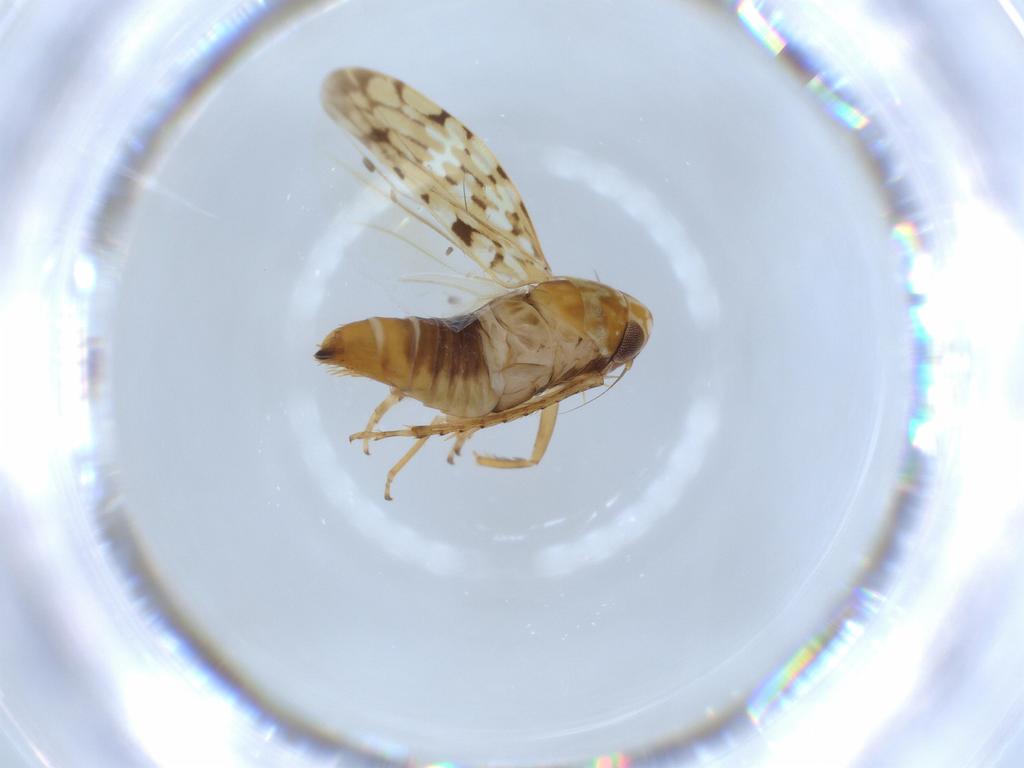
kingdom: Animalia
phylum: Arthropoda
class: Insecta
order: Hemiptera
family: Cicadellidae
